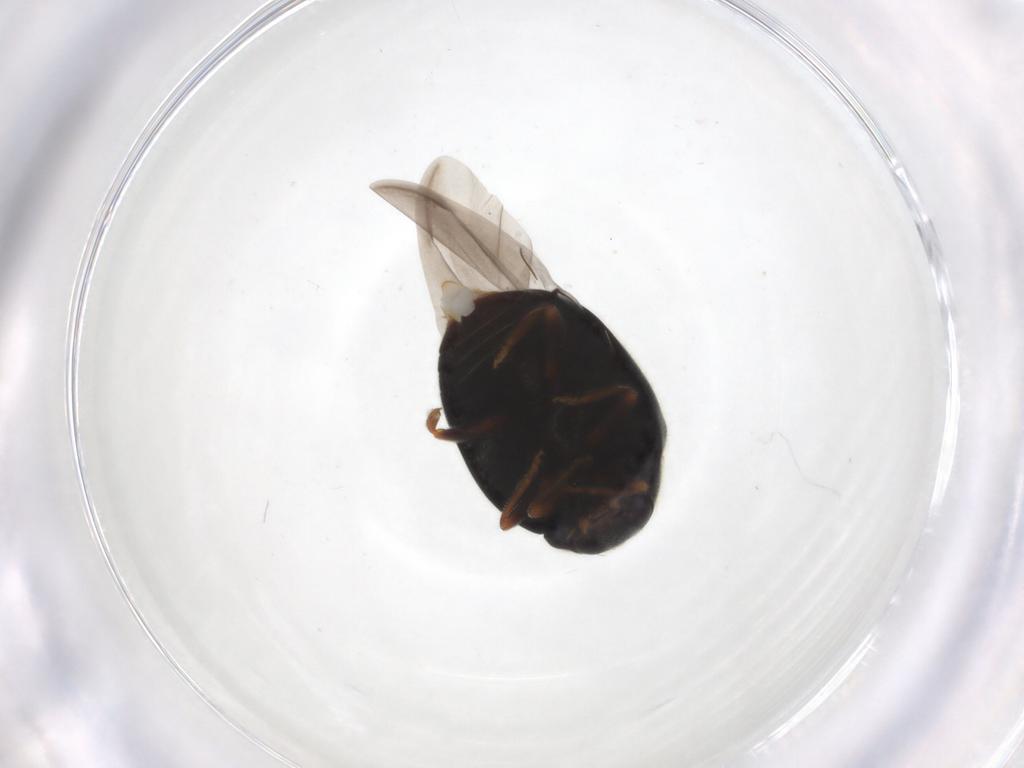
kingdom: Animalia
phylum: Arthropoda
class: Insecta
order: Coleoptera
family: Coccinellidae
